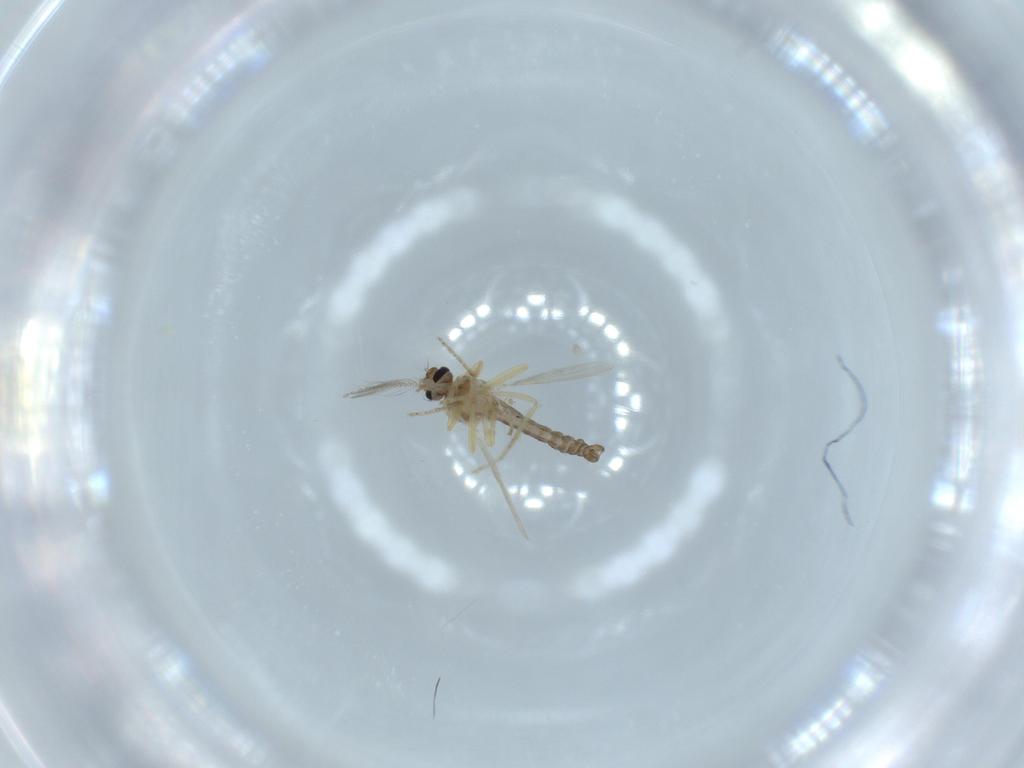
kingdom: Animalia
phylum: Arthropoda
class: Insecta
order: Diptera
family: Ceratopogonidae
